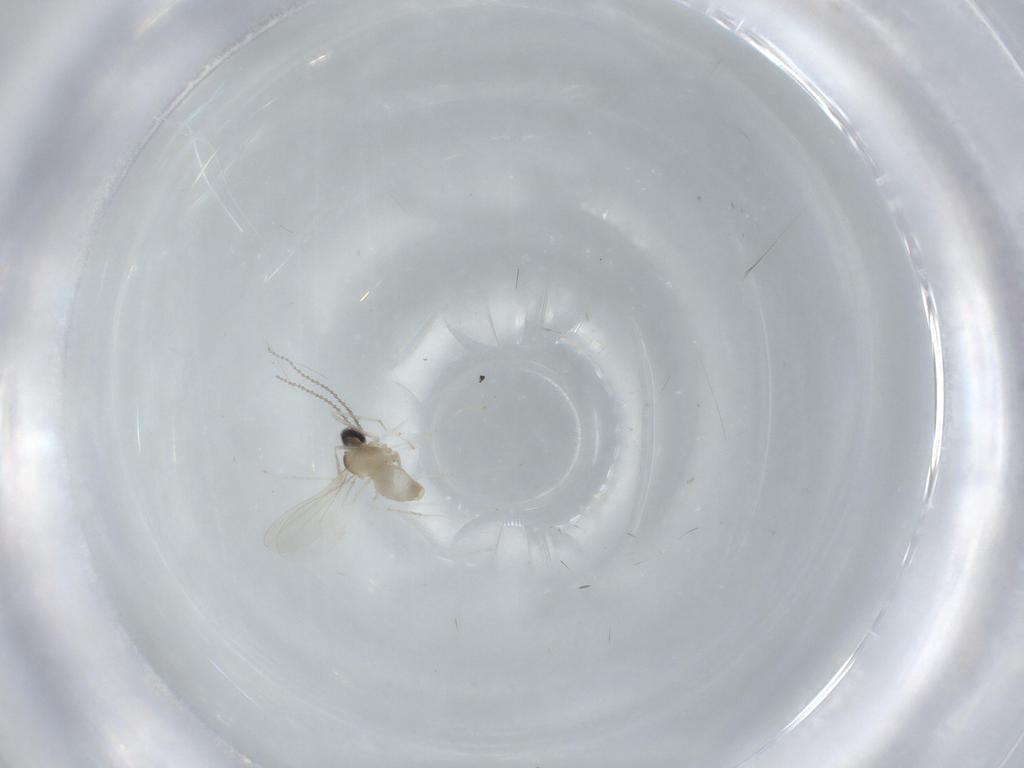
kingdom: Animalia
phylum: Arthropoda
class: Insecta
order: Diptera
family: Cecidomyiidae
